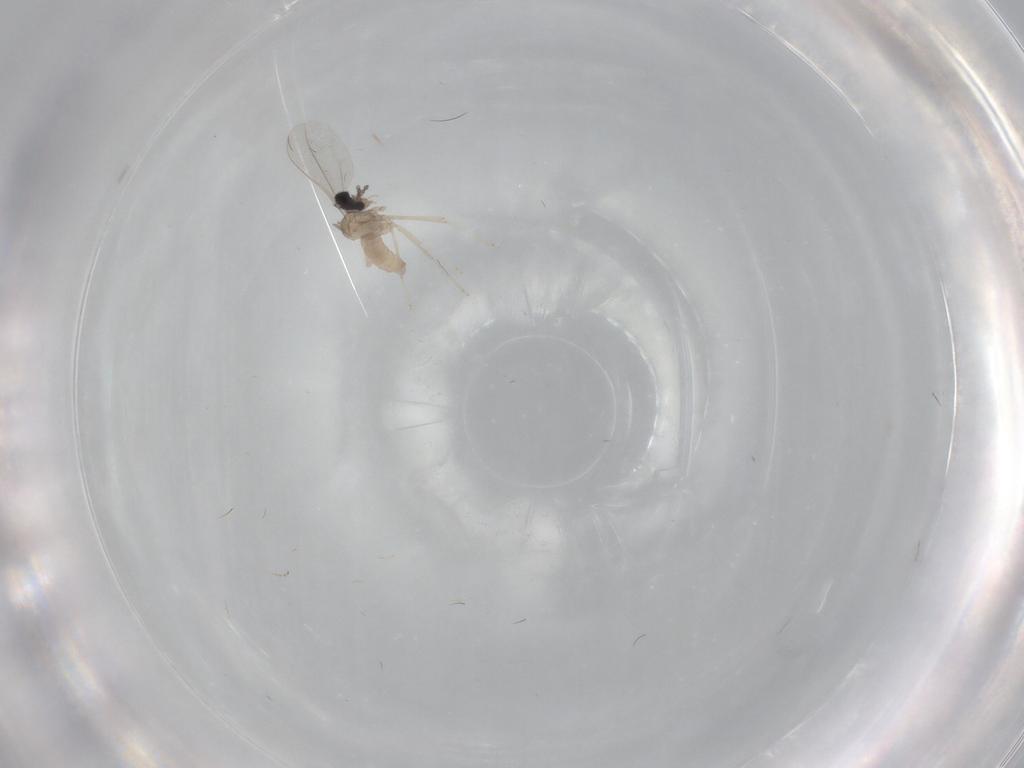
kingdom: Animalia
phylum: Arthropoda
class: Insecta
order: Diptera
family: Cecidomyiidae
